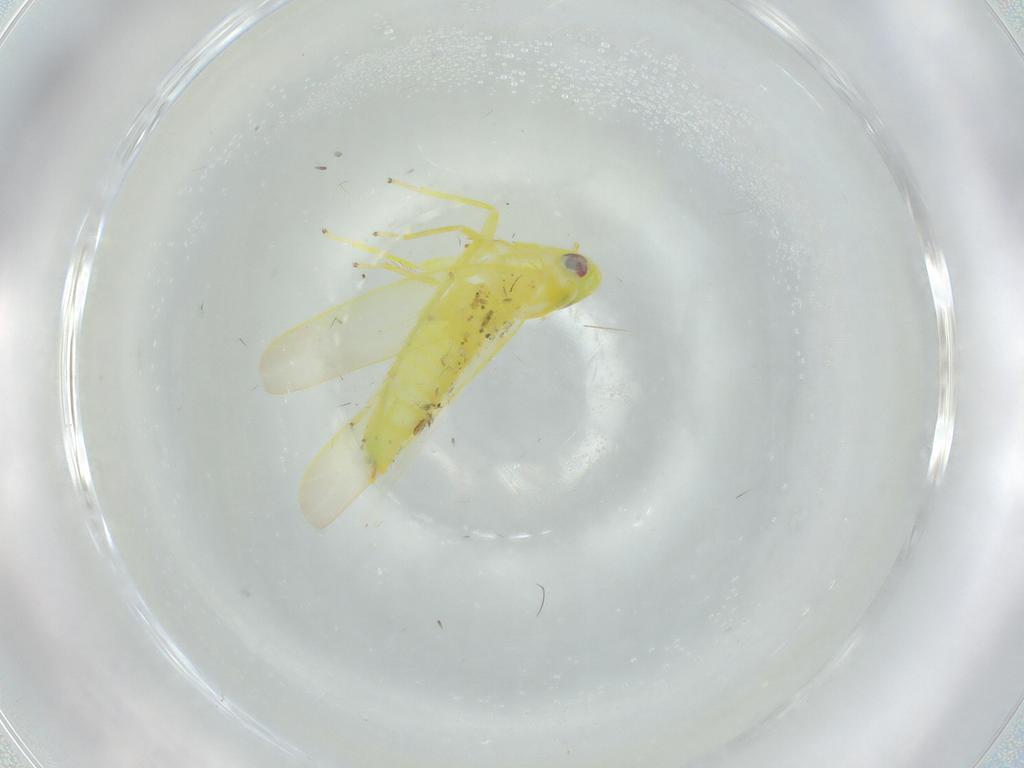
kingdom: Animalia
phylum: Arthropoda
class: Insecta
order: Hemiptera
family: Cicadellidae
